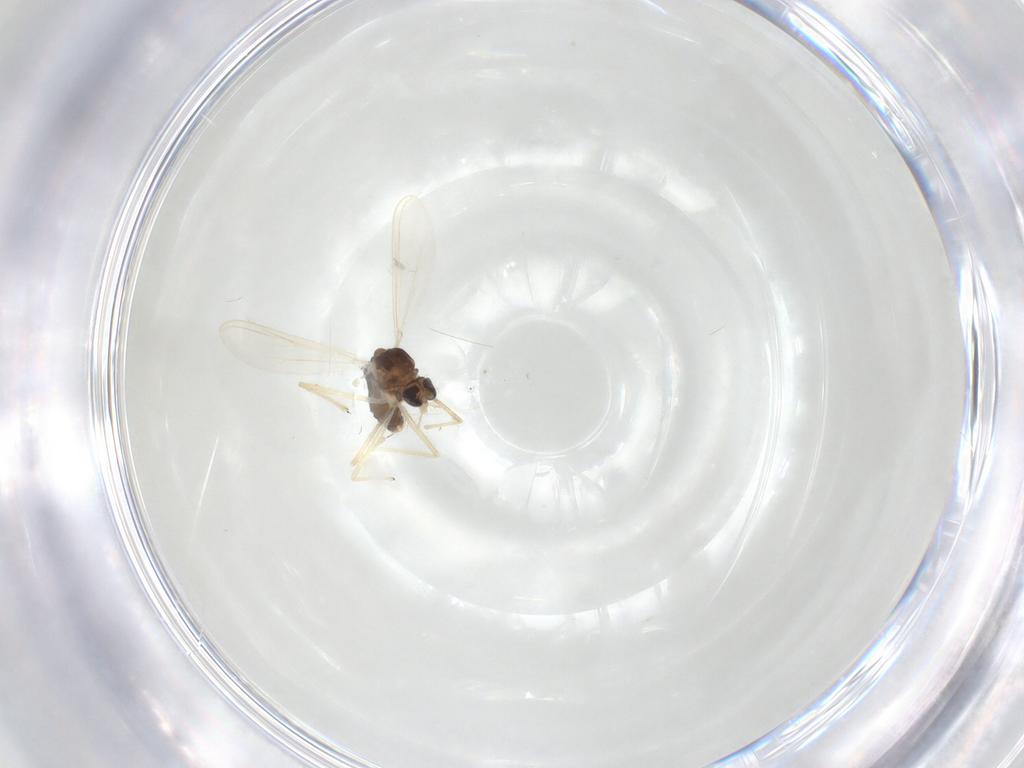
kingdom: Animalia
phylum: Arthropoda
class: Insecta
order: Diptera
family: Chironomidae
